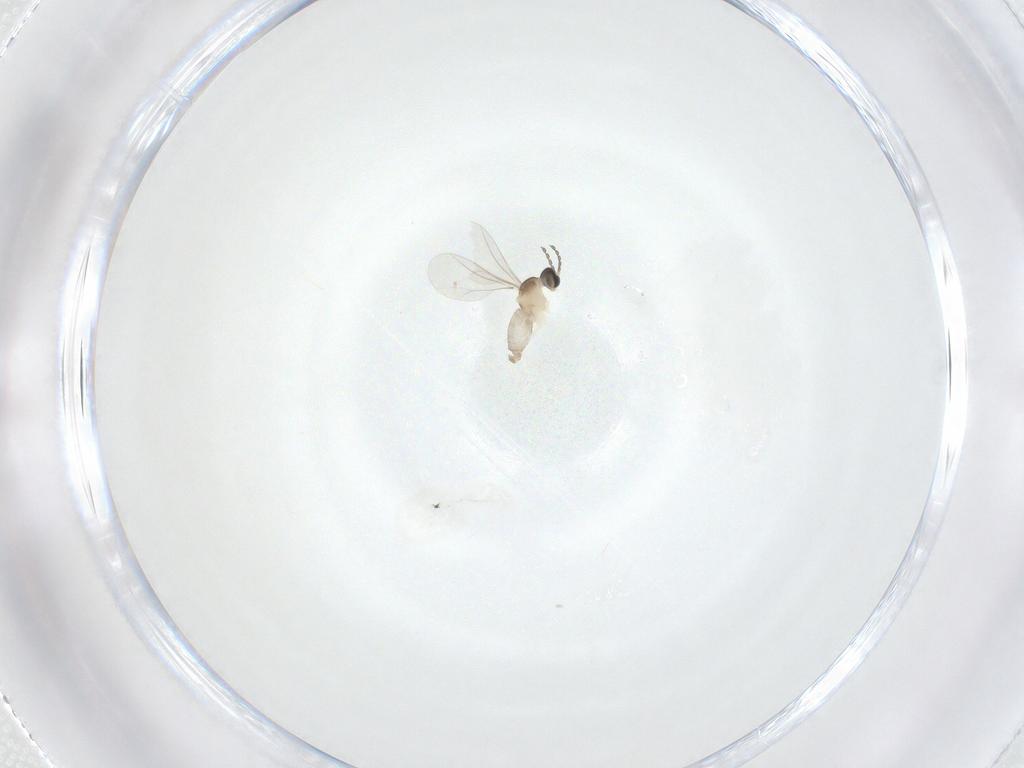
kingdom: Animalia
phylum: Arthropoda
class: Insecta
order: Diptera
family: Cecidomyiidae
